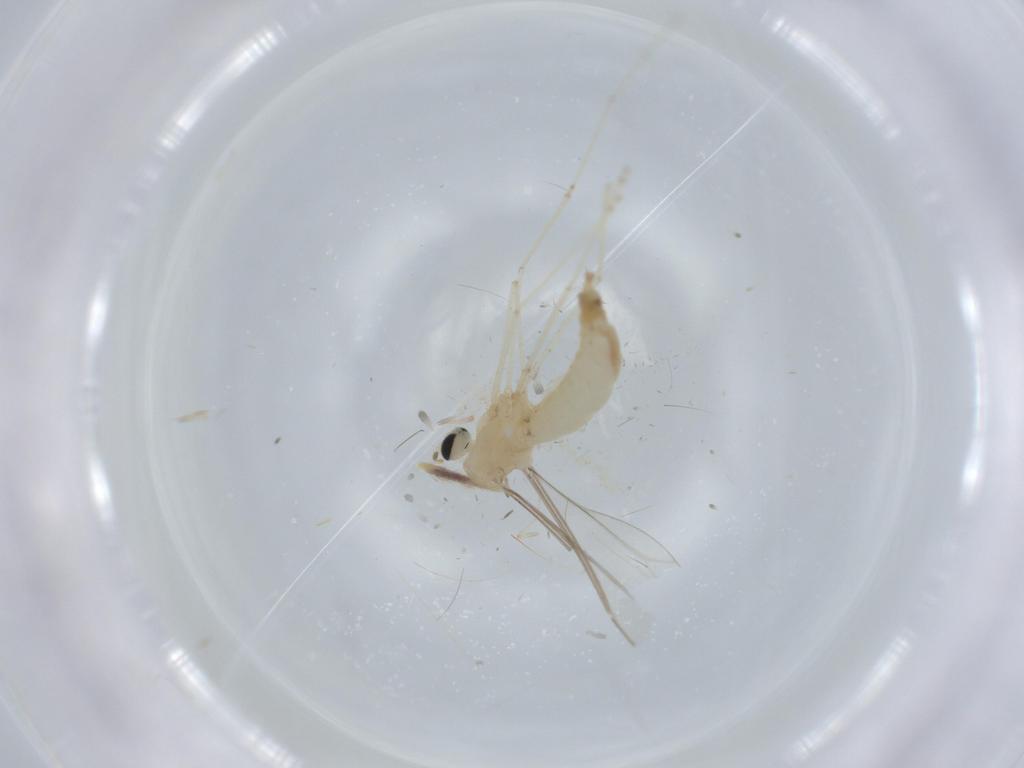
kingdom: Animalia
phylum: Arthropoda
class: Insecta
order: Diptera
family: Cecidomyiidae
